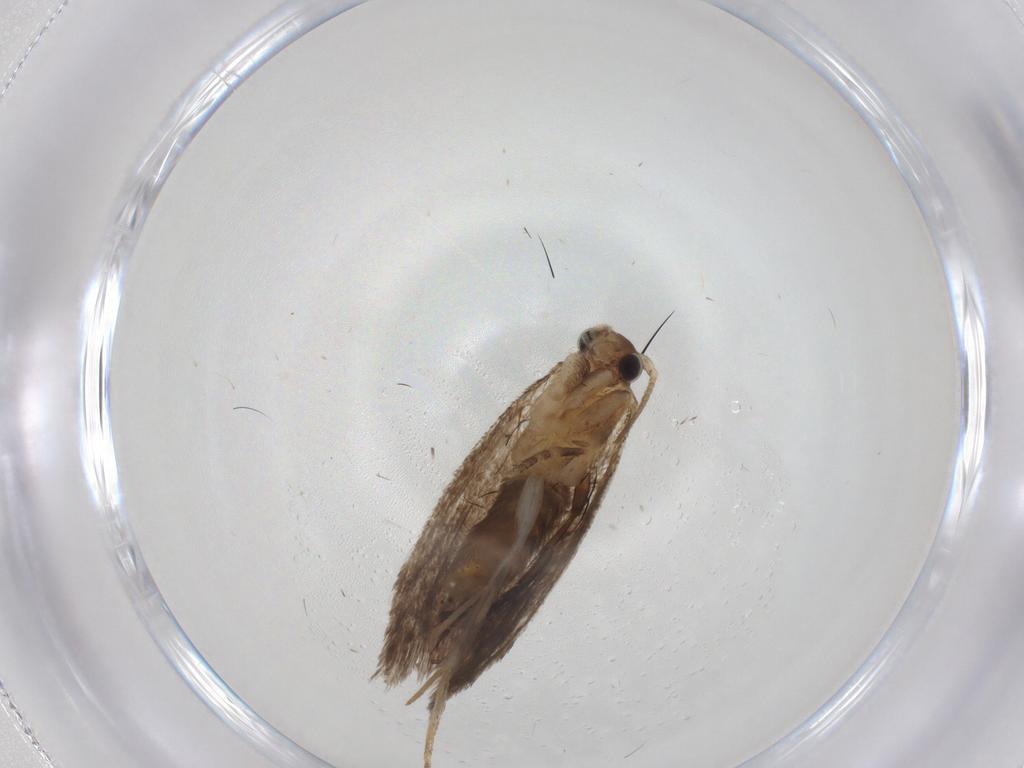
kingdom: Animalia
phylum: Arthropoda
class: Insecta
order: Lepidoptera
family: Dryadaulidae
